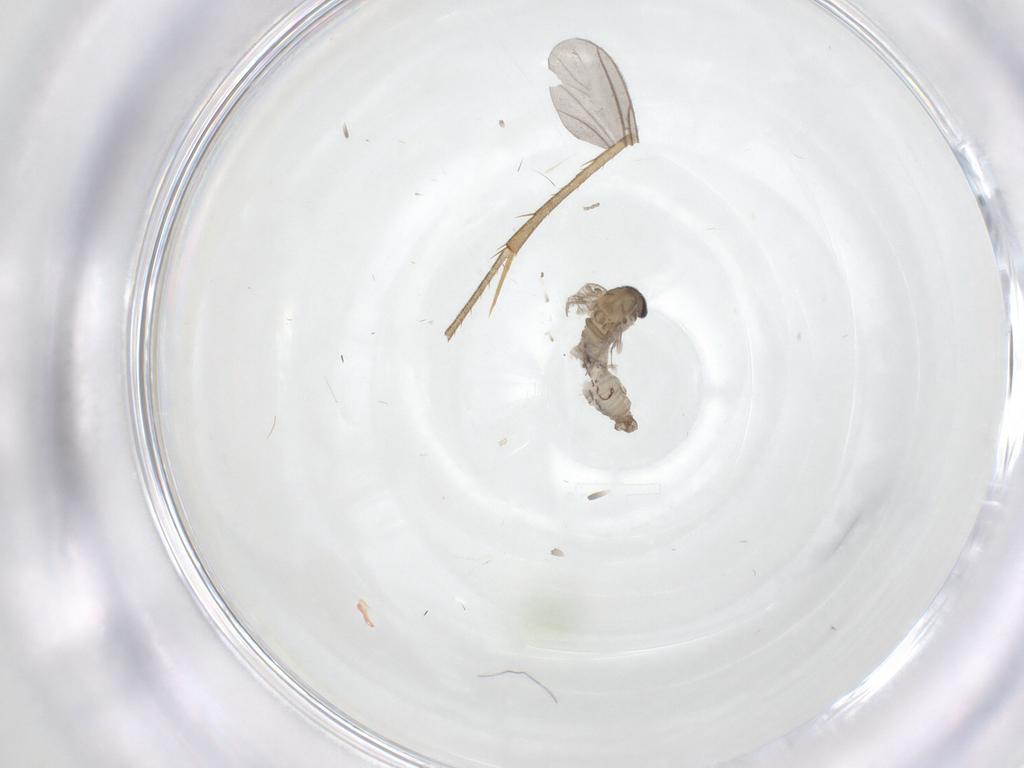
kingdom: Animalia
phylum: Arthropoda
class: Insecta
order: Diptera
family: Psychodidae
